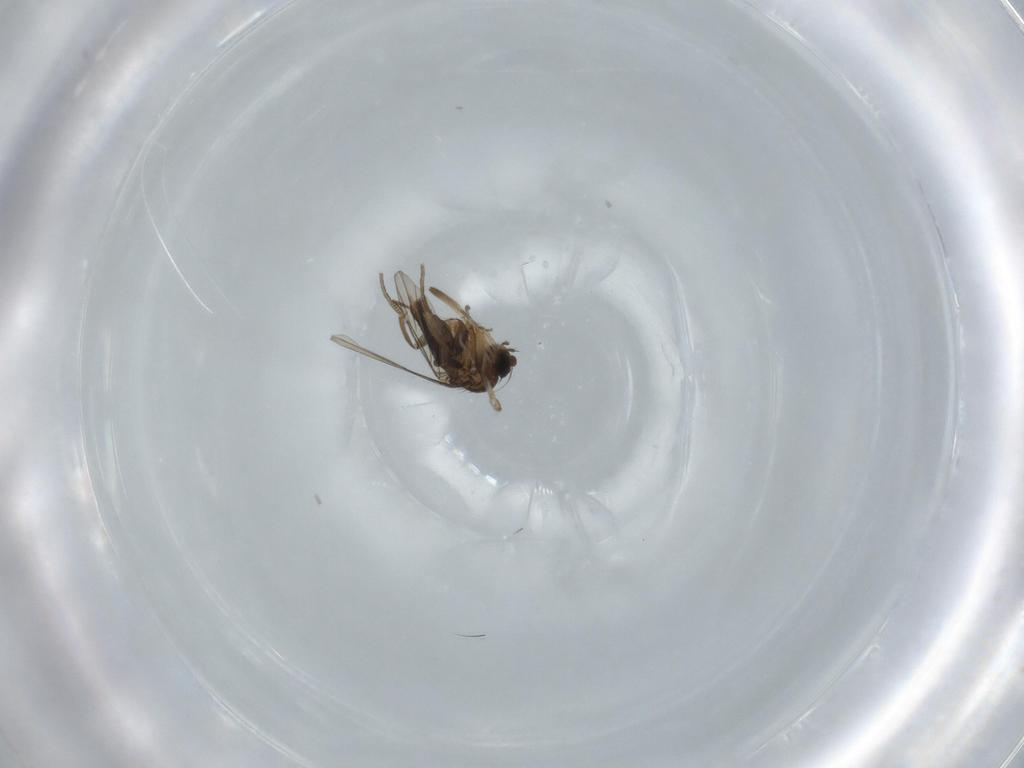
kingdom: Animalia
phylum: Arthropoda
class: Insecta
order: Diptera
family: Phoridae
